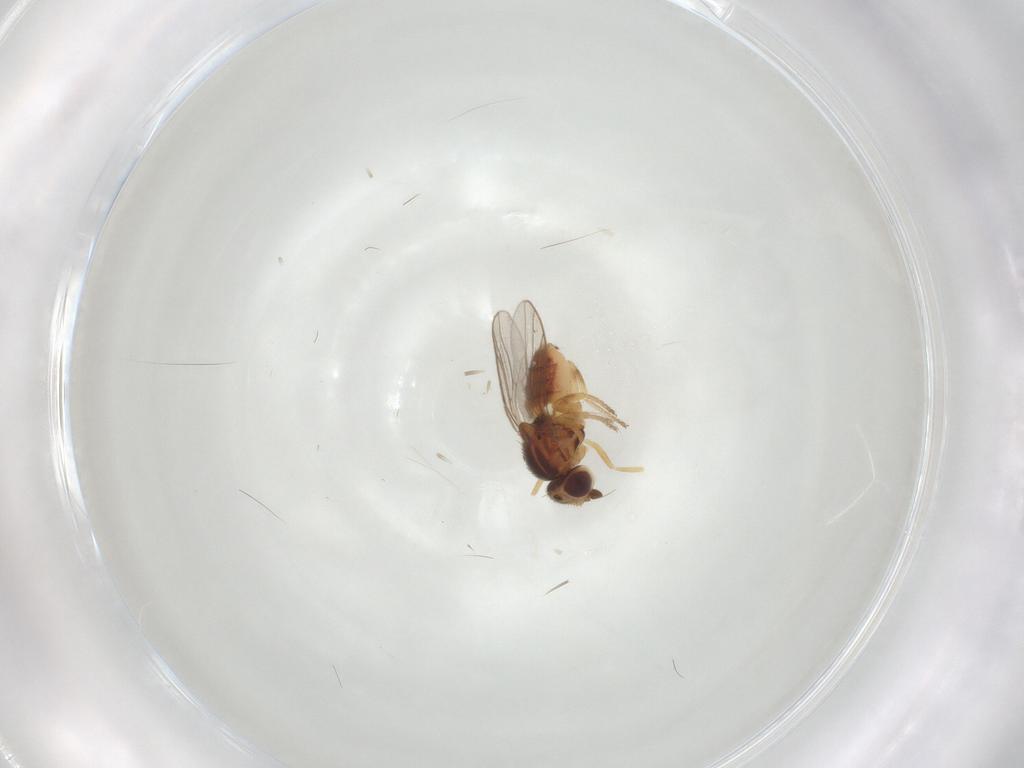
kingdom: Animalia
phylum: Arthropoda
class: Insecta
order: Diptera
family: Chloropidae
